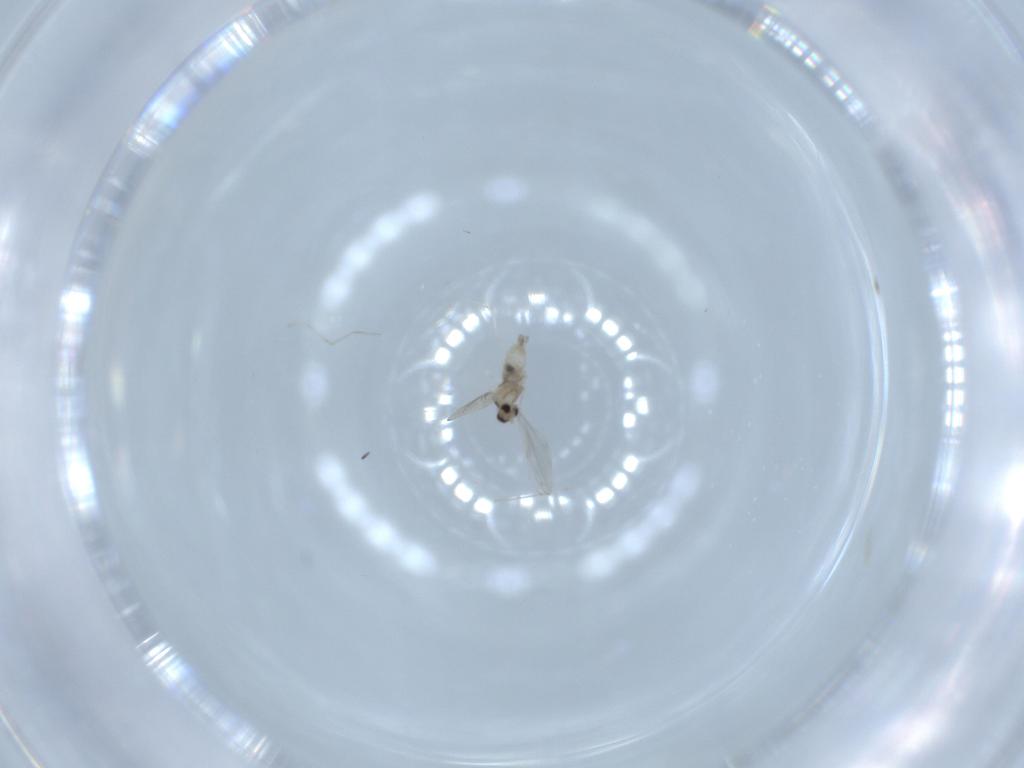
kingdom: Animalia
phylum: Arthropoda
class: Insecta
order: Diptera
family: Cecidomyiidae
